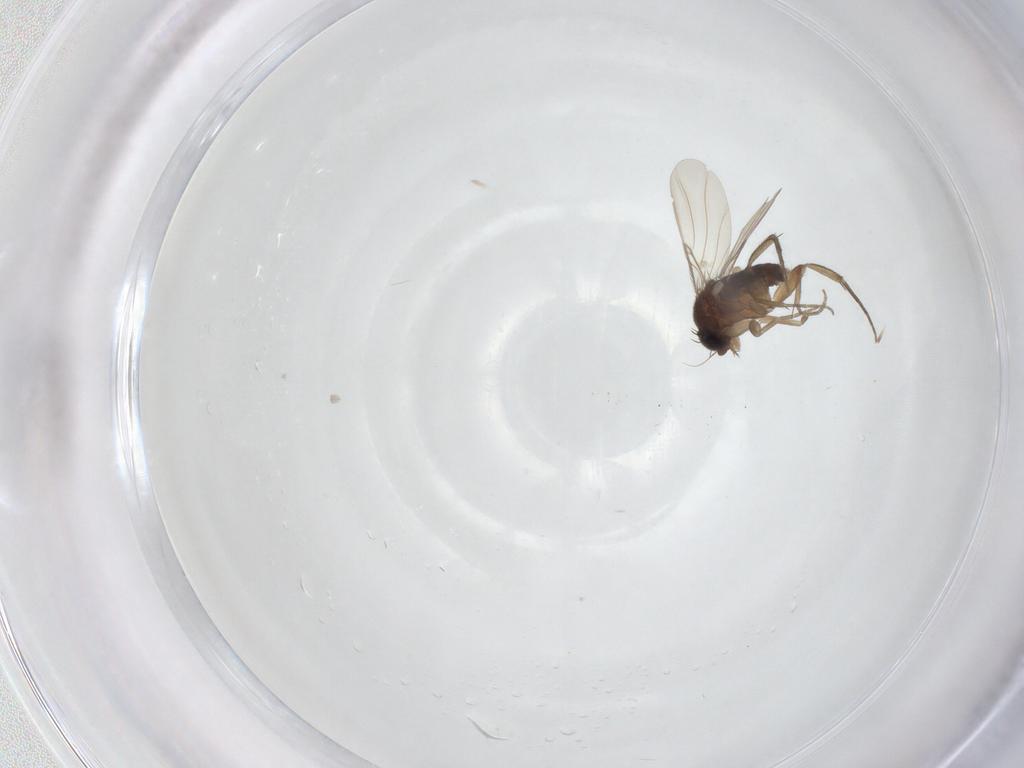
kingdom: Animalia
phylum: Arthropoda
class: Insecta
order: Diptera
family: Phoridae
